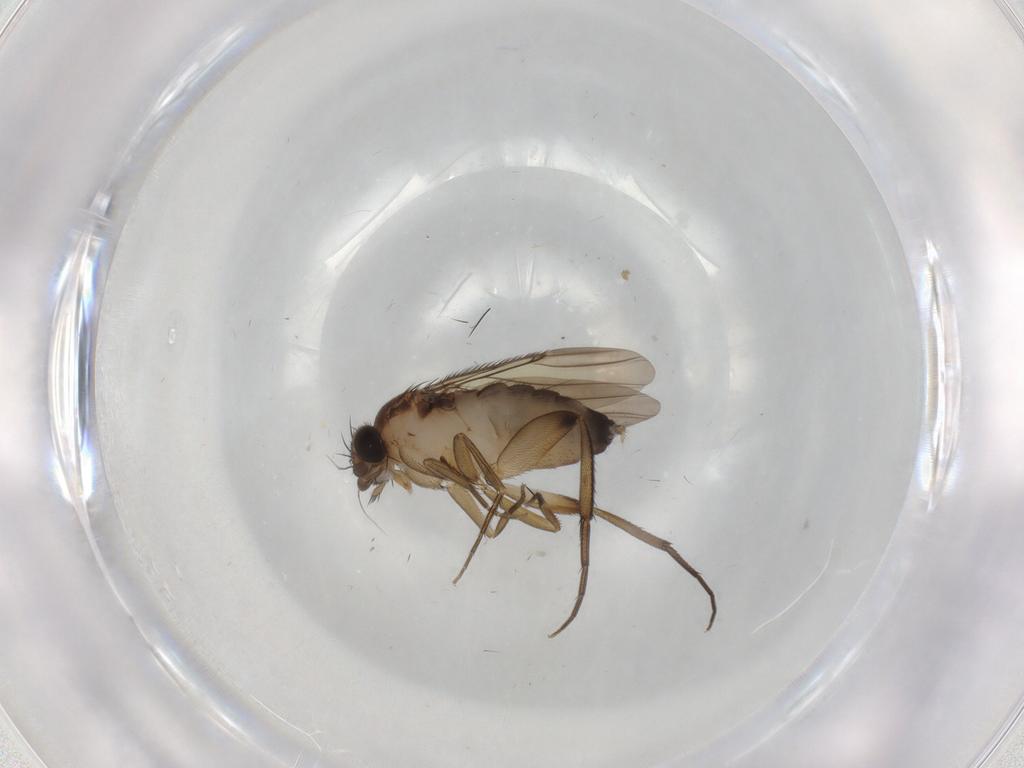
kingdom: Animalia
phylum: Arthropoda
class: Insecta
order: Diptera
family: Phoridae
